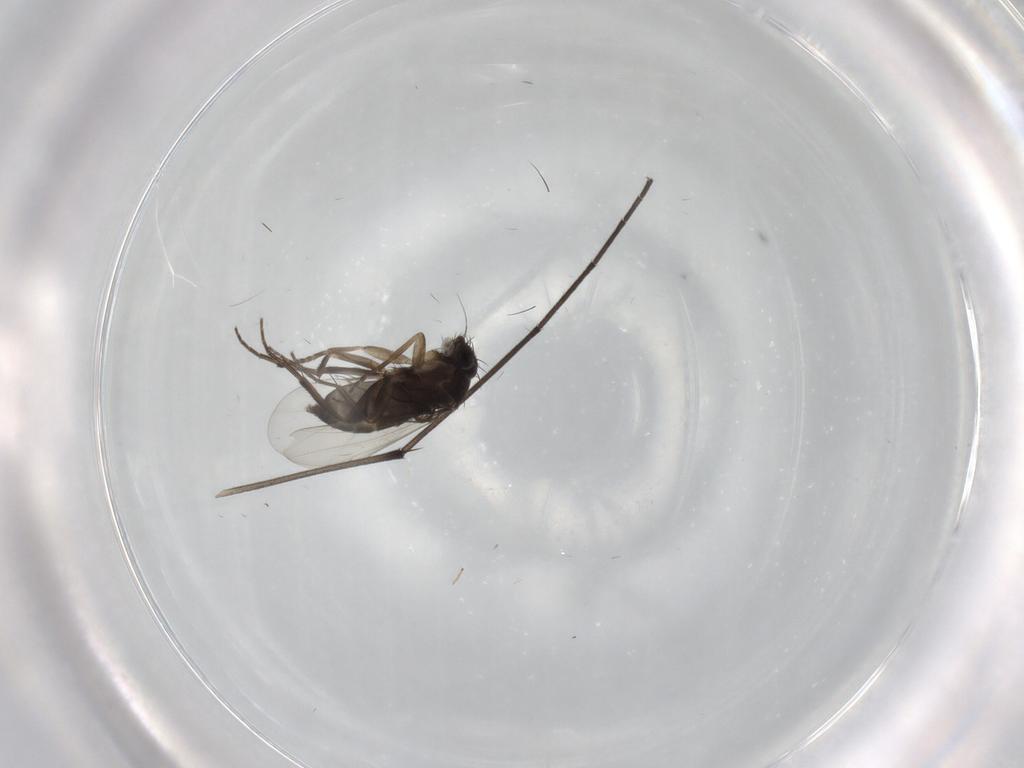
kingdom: Animalia
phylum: Arthropoda
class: Insecta
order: Diptera
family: Phoridae
